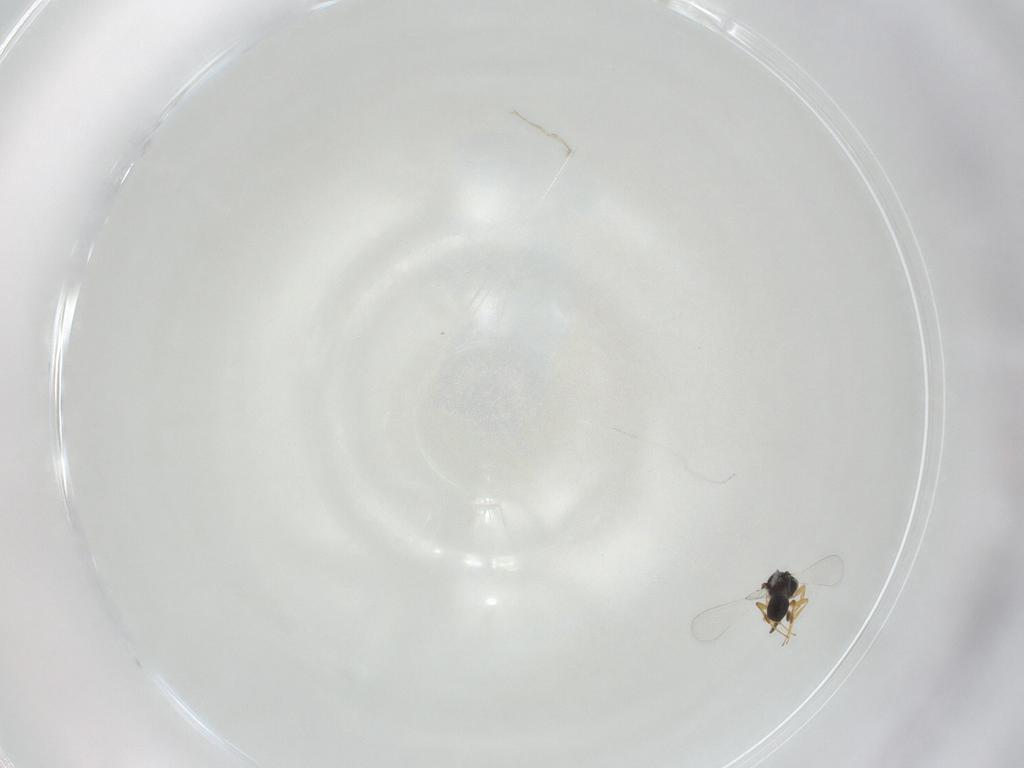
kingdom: Animalia
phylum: Arthropoda
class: Insecta
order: Hymenoptera
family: Platygastridae
